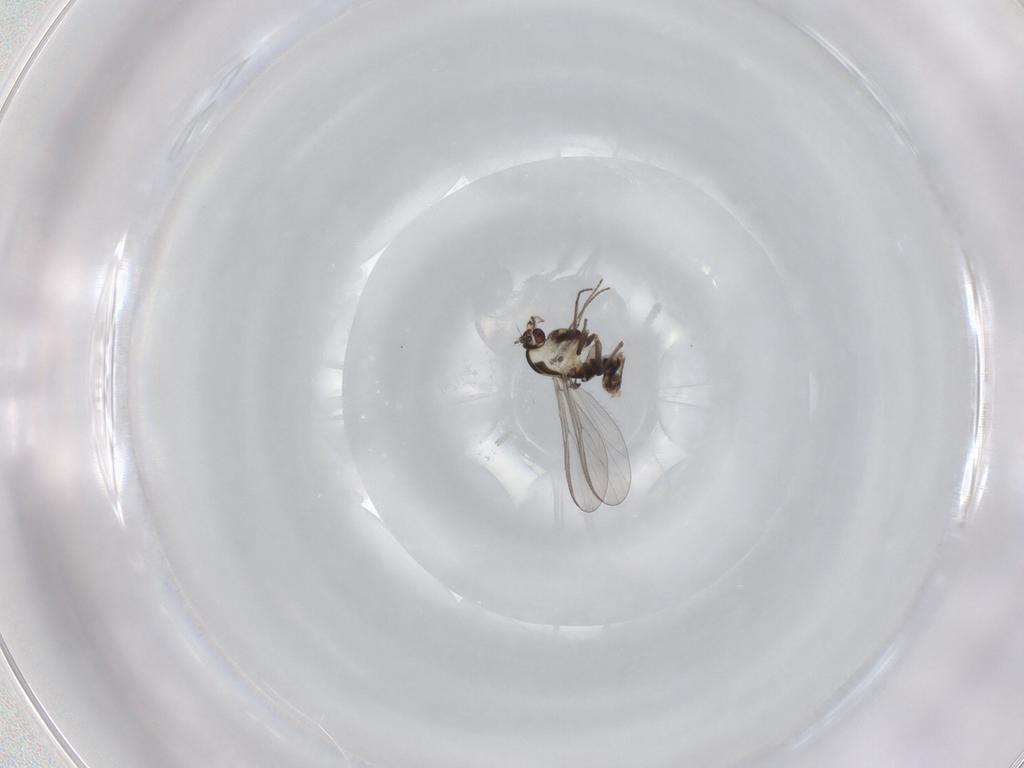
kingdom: Animalia
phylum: Arthropoda
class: Insecta
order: Diptera
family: Chironomidae
